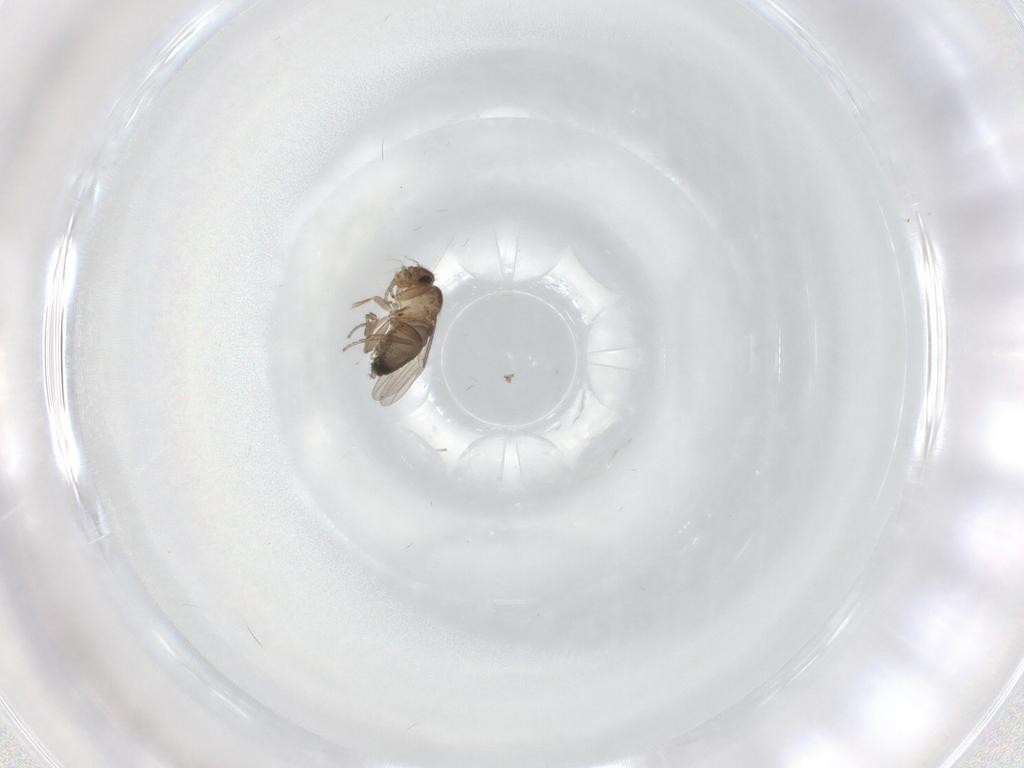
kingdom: Animalia
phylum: Arthropoda
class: Insecta
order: Diptera
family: Phoridae
